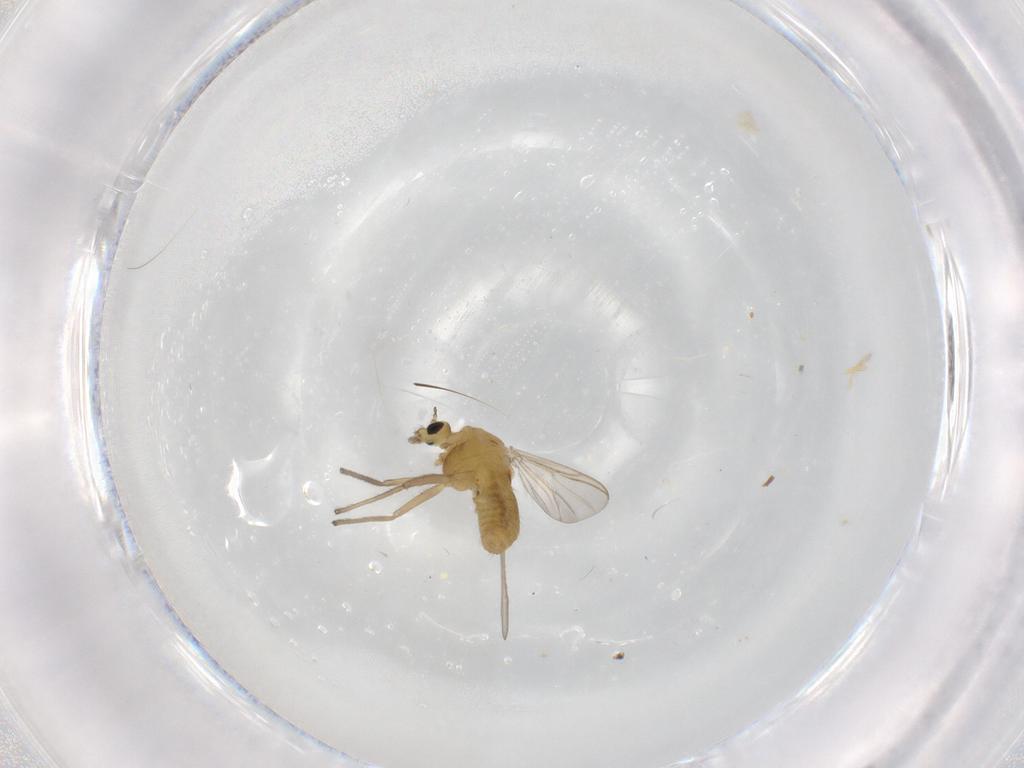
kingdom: Animalia
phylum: Arthropoda
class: Insecta
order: Diptera
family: Chironomidae
